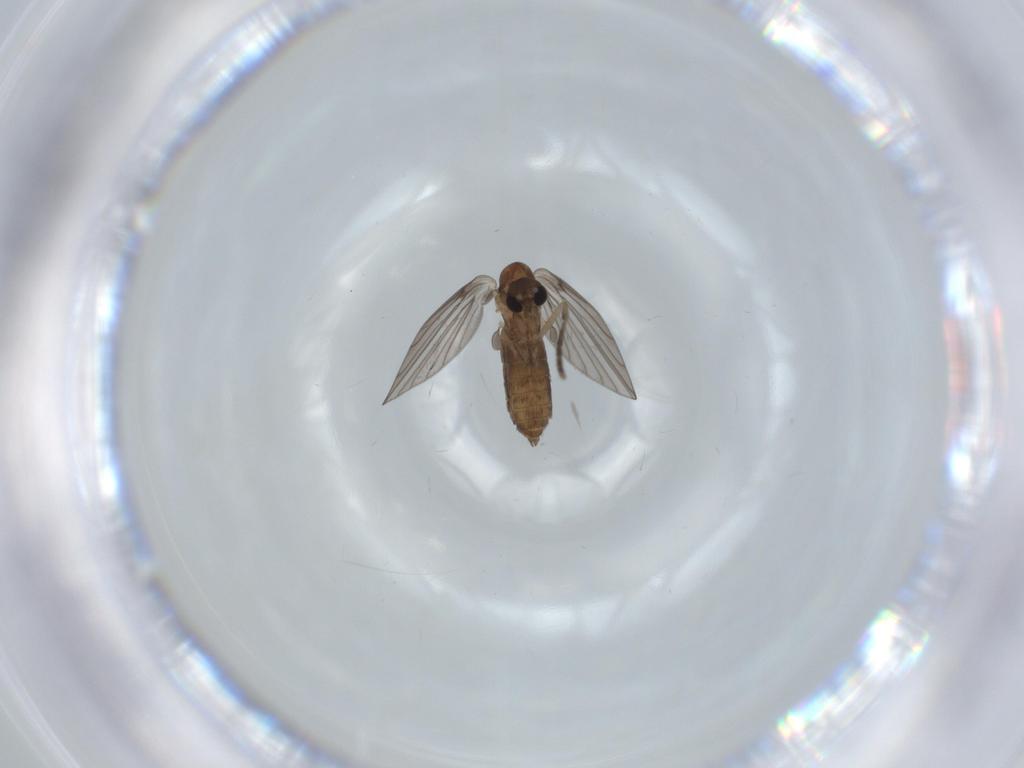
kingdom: Animalia
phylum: Arthropoda
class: Insecta
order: Diptera
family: Psychodidae
